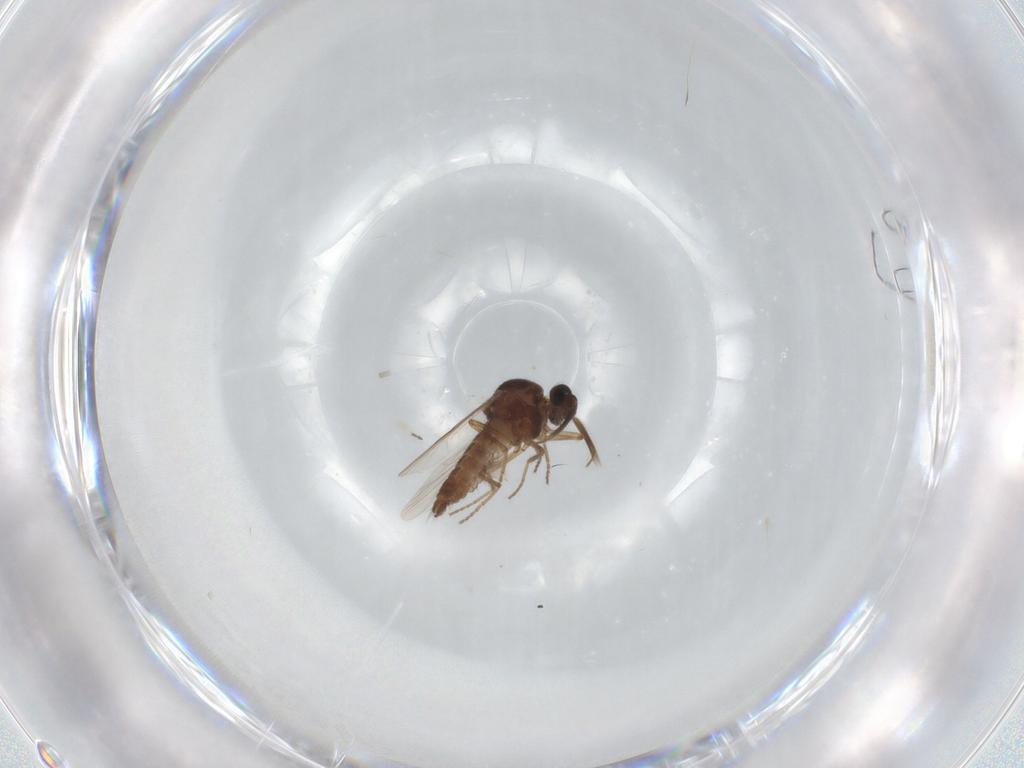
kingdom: Animalia
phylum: Arthropoda
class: Insecta
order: Diptera
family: Ceratopogonidae
